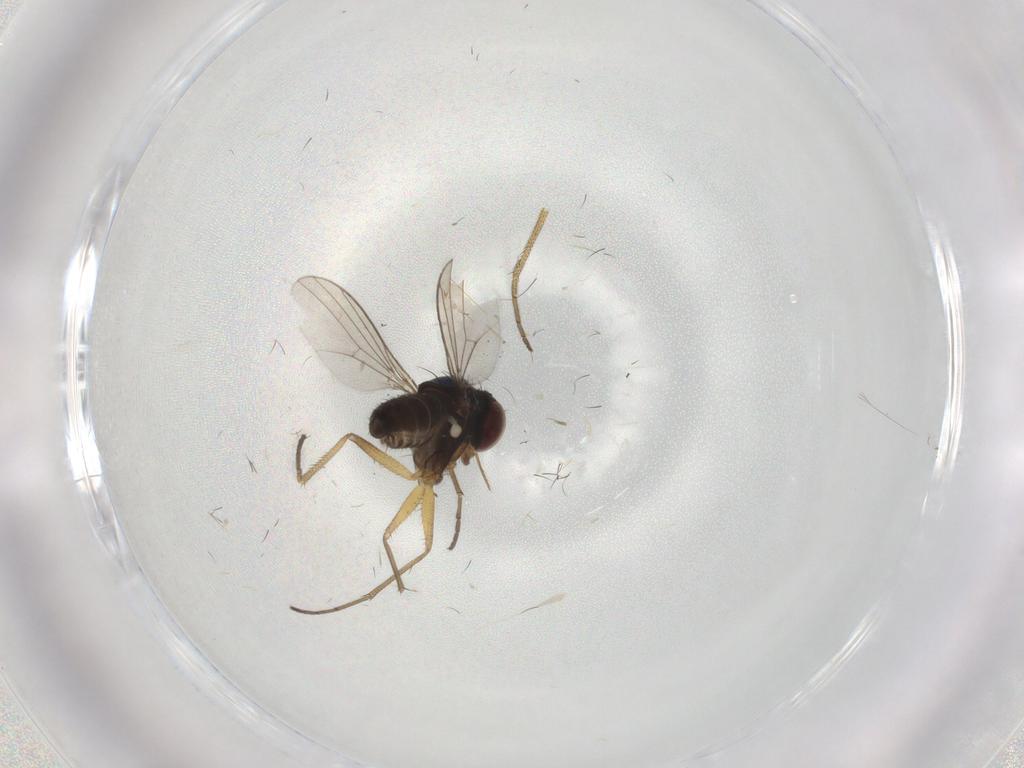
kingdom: Animalia
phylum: Arthropoda
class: Insecta
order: Diptera
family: Dolichopodidae
